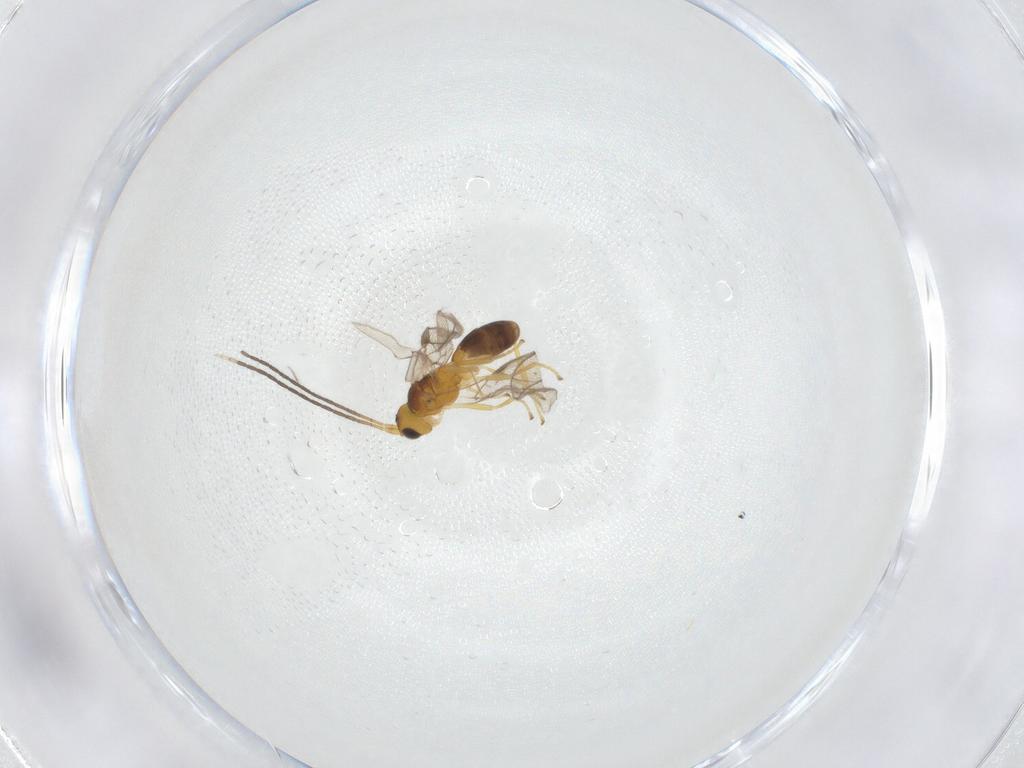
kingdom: Animalia
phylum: Arthropoda
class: Insecta
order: Hymenoptera
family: Braconidae
